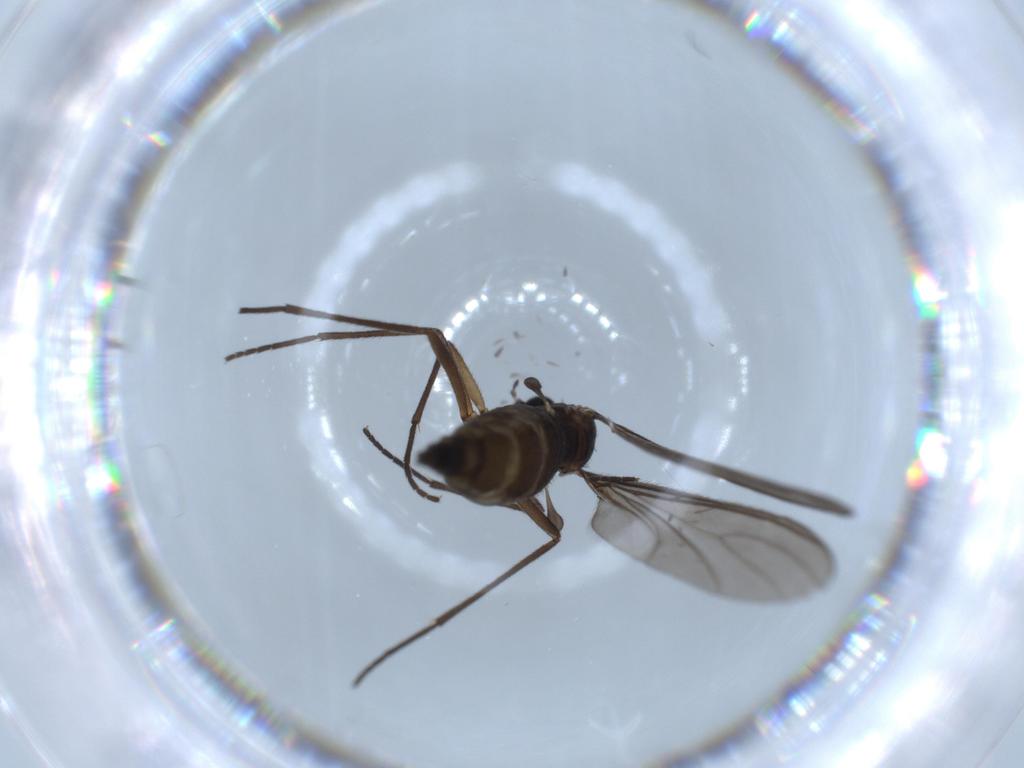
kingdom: Animalia
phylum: Arthropoda
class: Insecta
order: Diptera
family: Sciaridae
